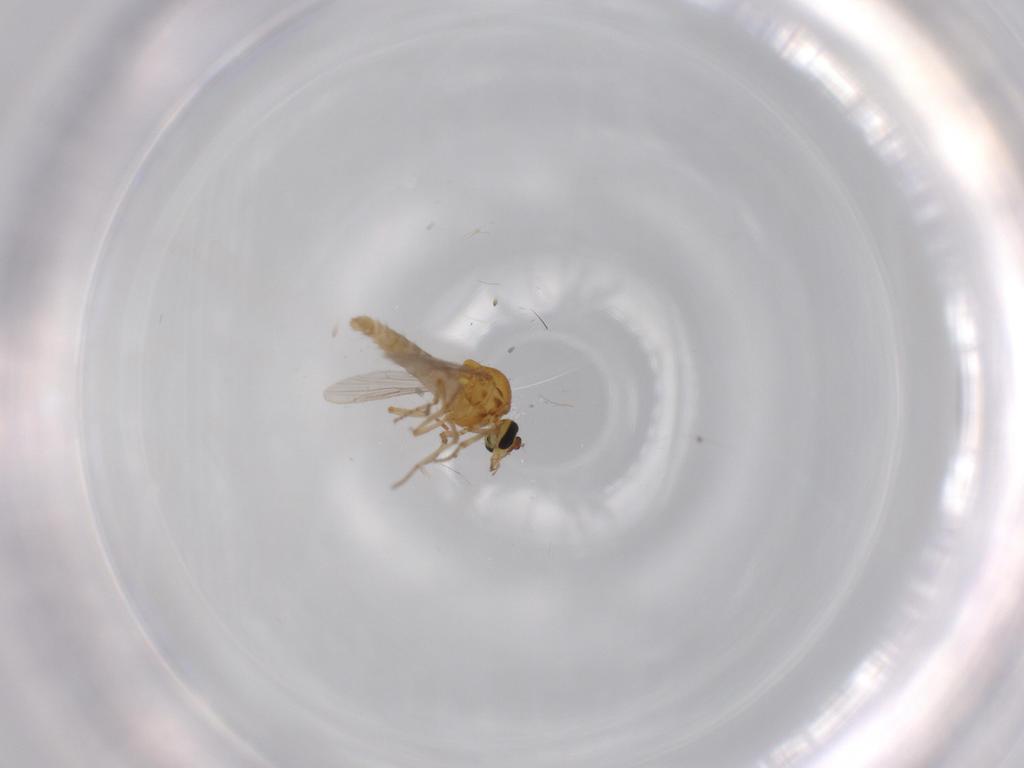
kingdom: Animalia
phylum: Arthropoda
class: Insecta
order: Diptera
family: Ceratopogonidae
